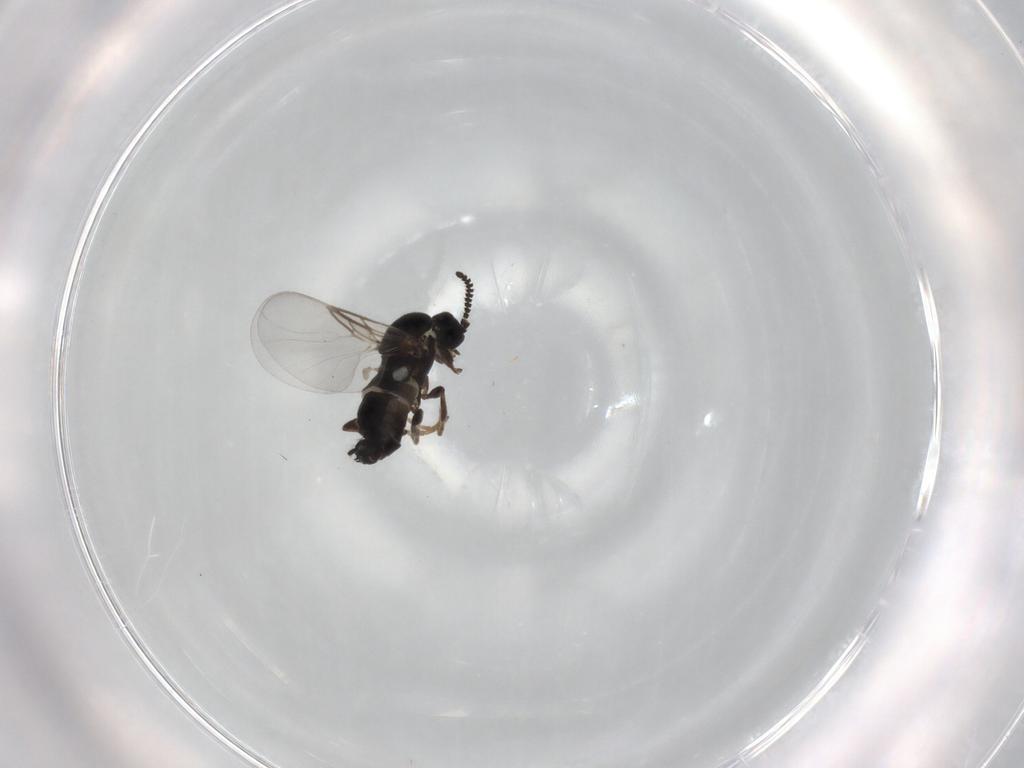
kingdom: Animalia
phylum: Arthropoda
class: Insecta
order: Diptera
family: Scatopsidae
